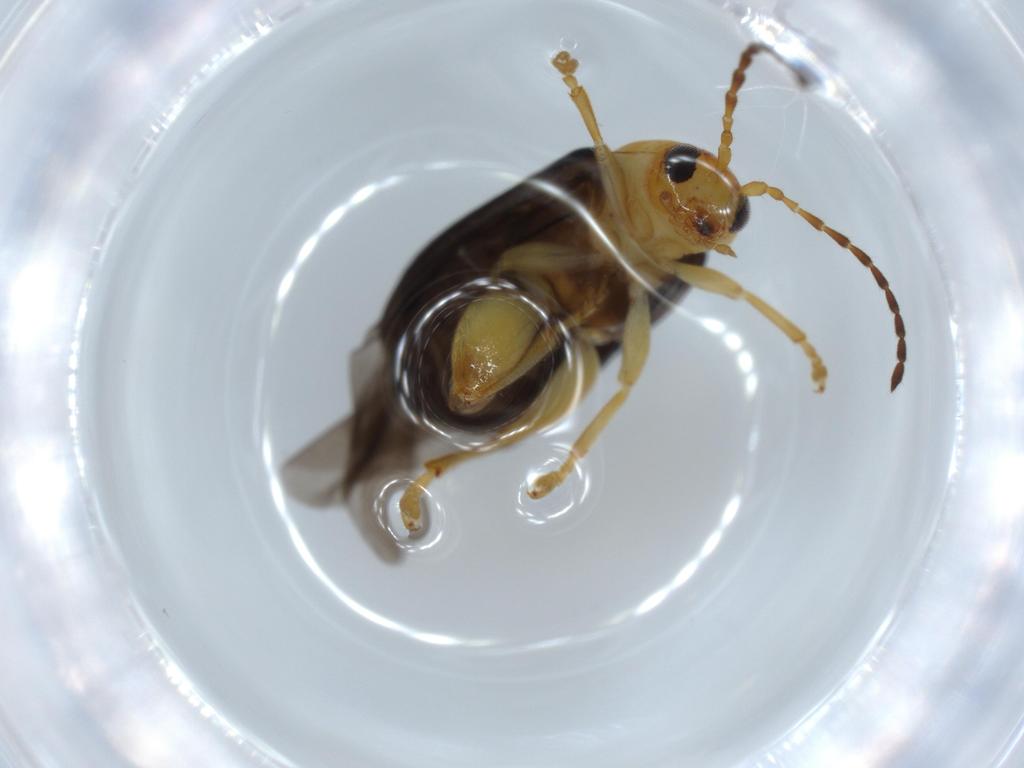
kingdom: Animalia
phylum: Arthropoda
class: Insecta
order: Coleoptera
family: Chrysomelidae
